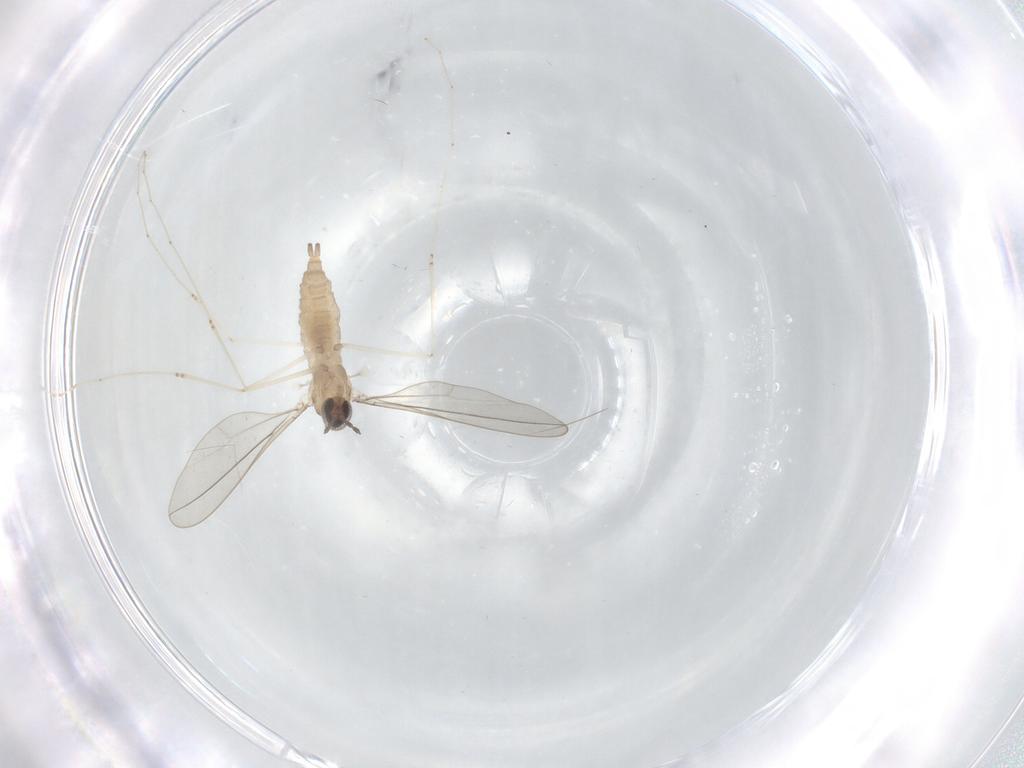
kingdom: Animalia
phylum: Arthropoda
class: Insecta
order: Diptera
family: Cecidomyiidae
